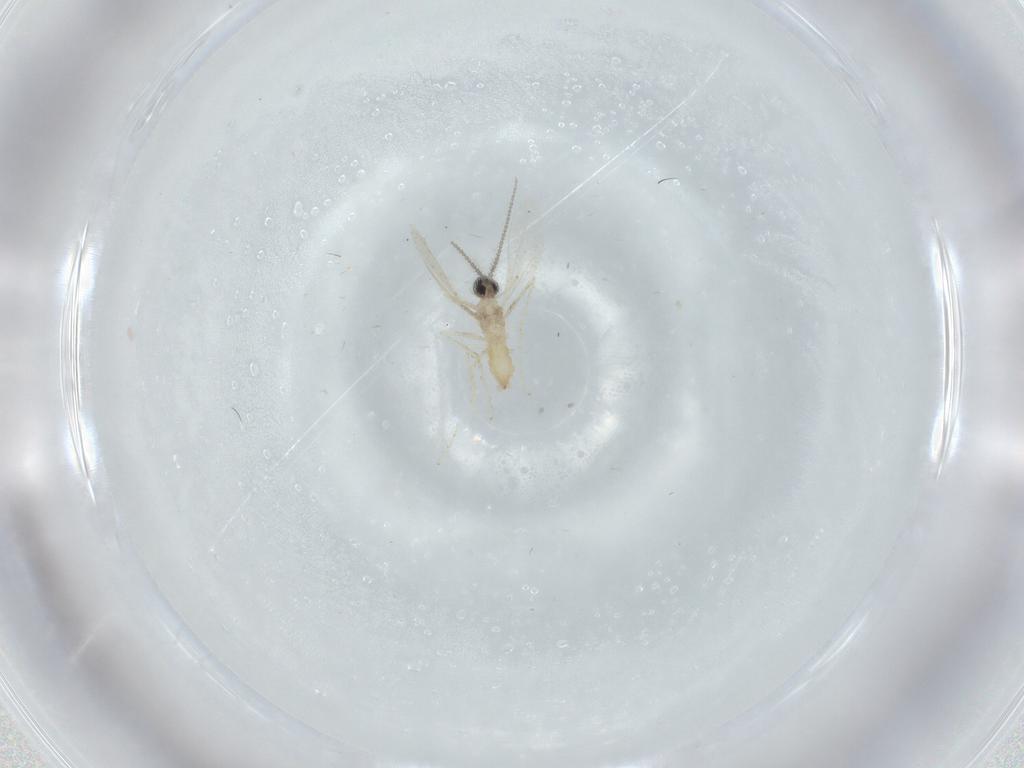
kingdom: Animalia
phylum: Arthropoda
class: Insecta
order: Diptera
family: Cecidomyiidae
